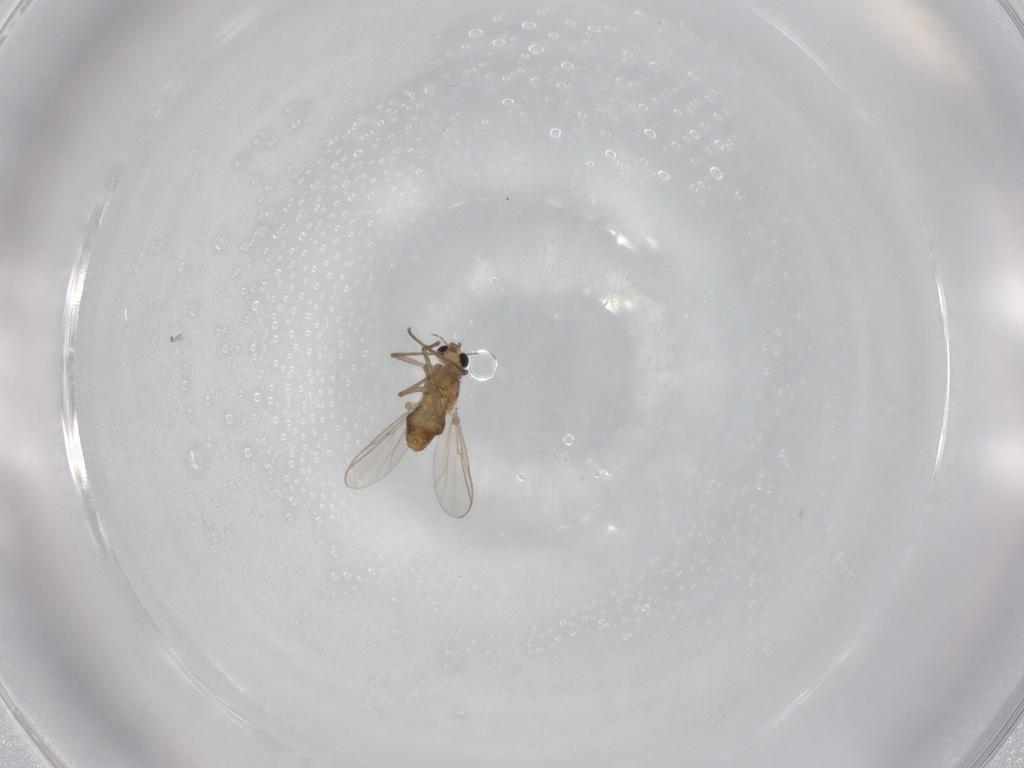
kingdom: Animalia
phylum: Arthropoda
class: Insecta
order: Diptera
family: Chironomidae
